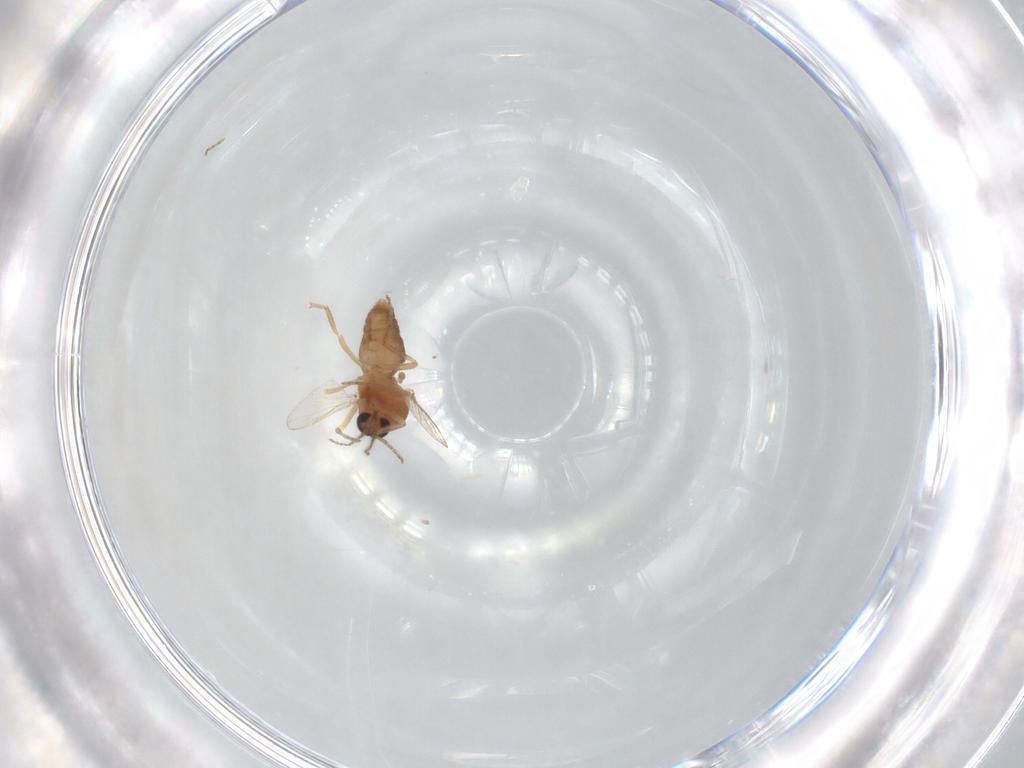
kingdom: Animalia
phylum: Arthropoda
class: Insecta
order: Diptera
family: Ceratopogonidae
